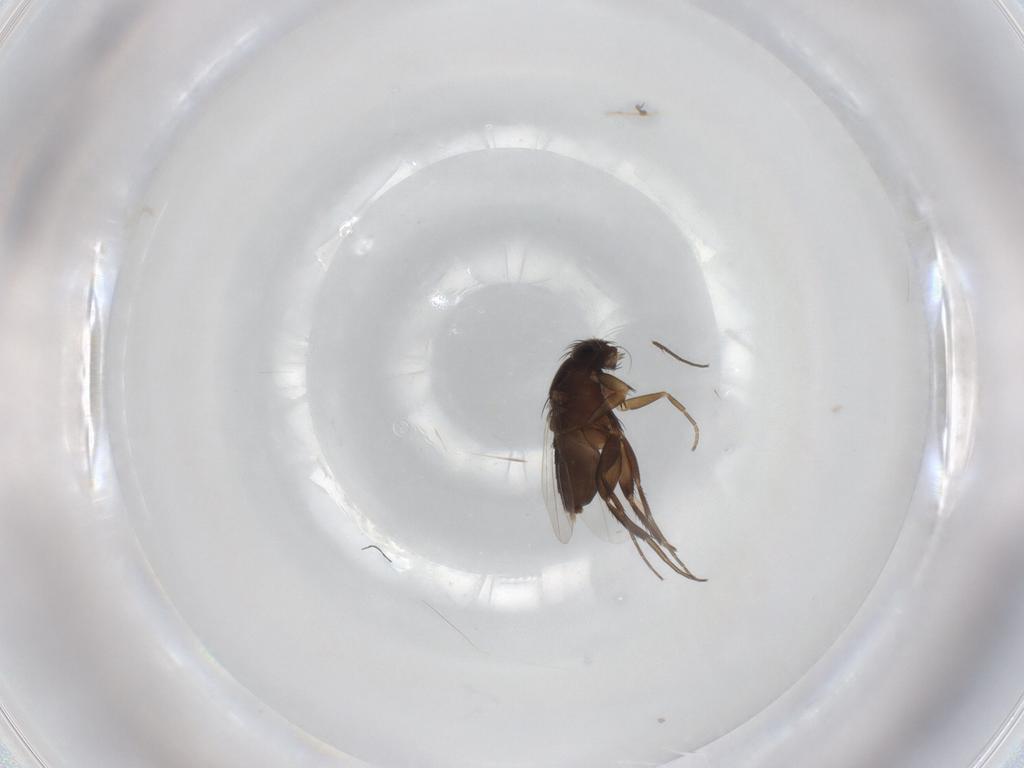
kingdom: Animalia
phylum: Arthropoda
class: Insecta
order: Diptera
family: Phoridae
